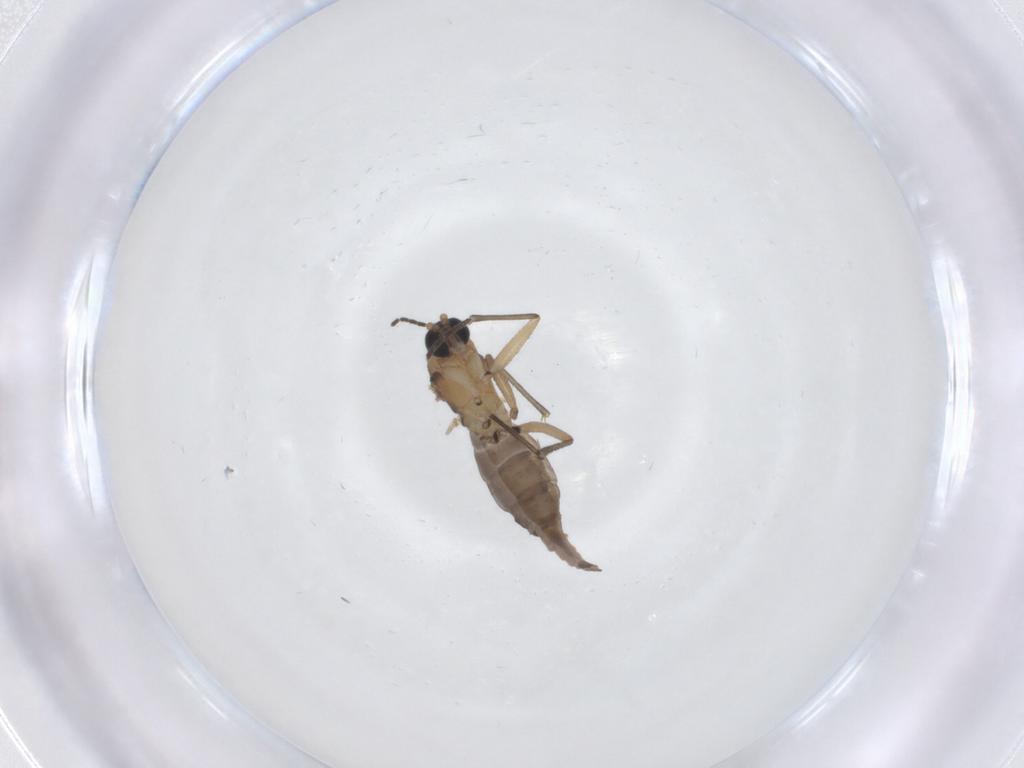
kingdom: Animalia
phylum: Arthropoda
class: Insecta
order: Diptera
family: Sciaridae
